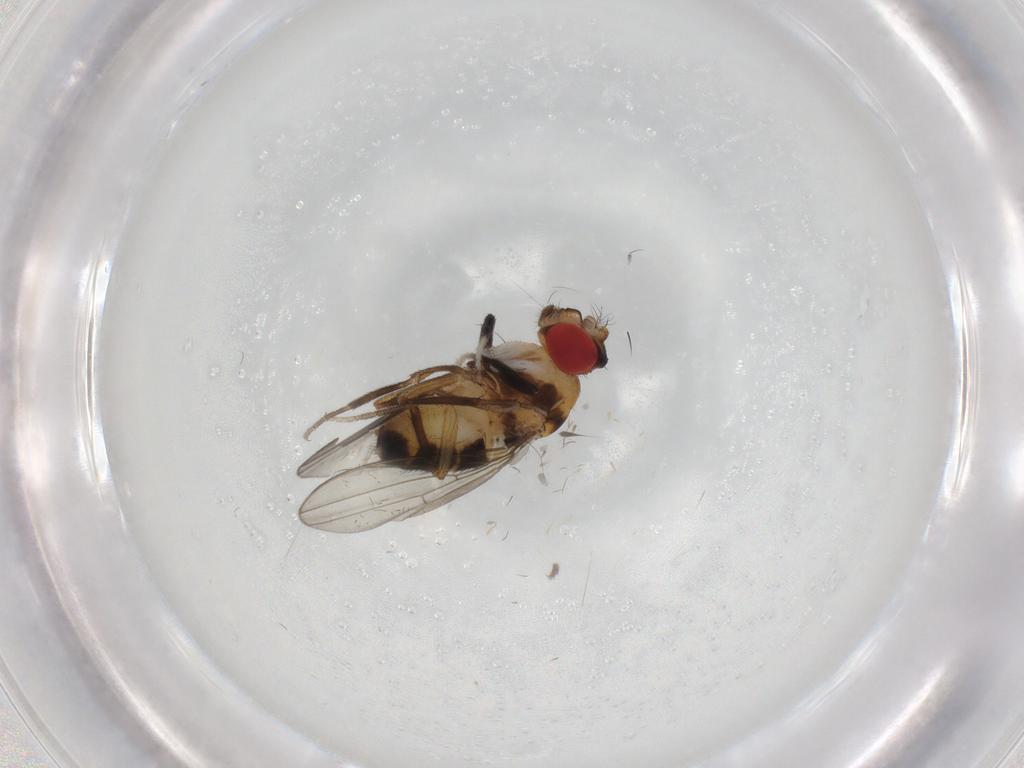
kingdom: Animalia
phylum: Arthropoda
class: Insecta
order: Diptera
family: Drosophilidae
